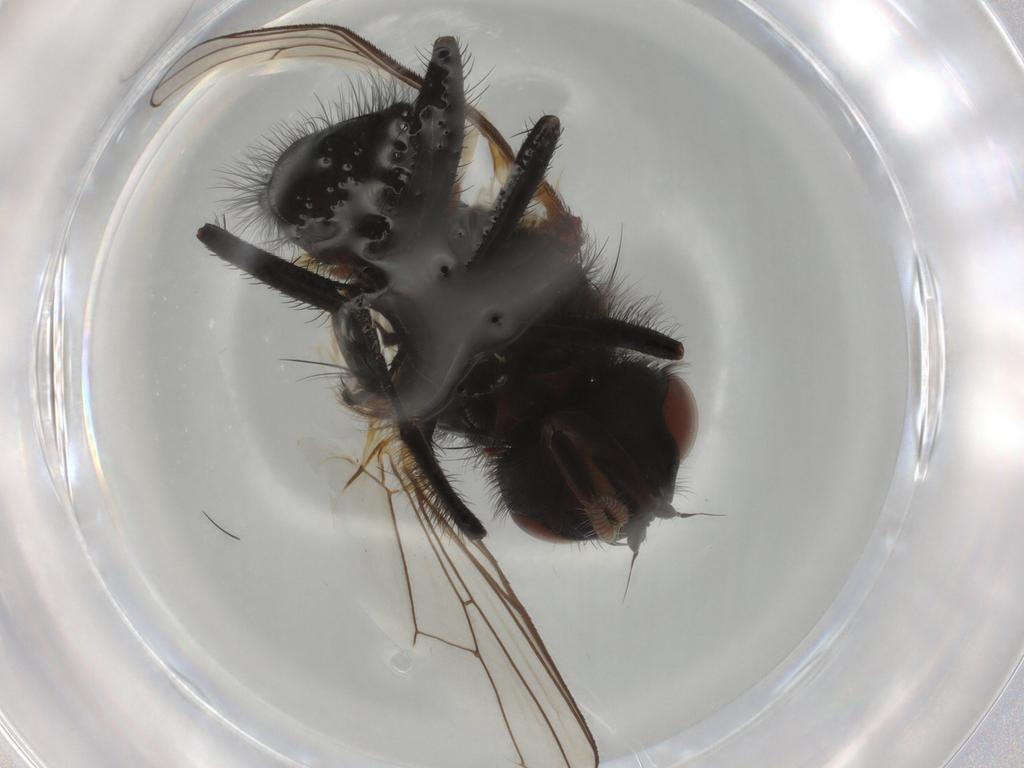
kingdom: Animalia
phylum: Arthropoda
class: Insecta
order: Diptera
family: Anthomyiidae
